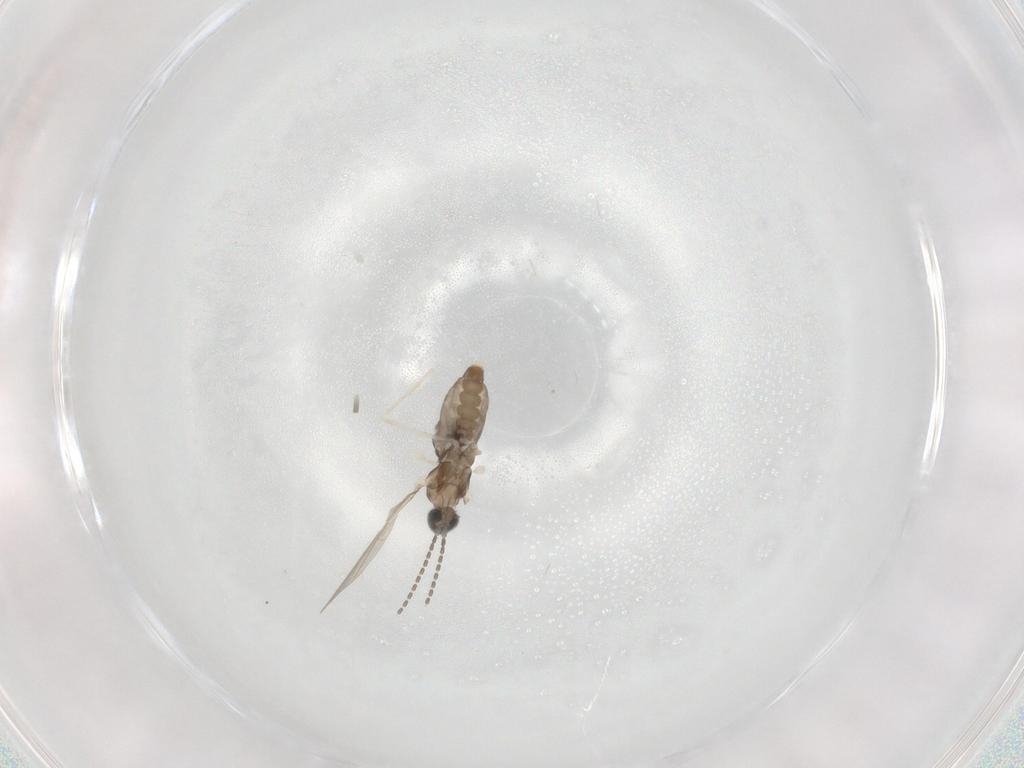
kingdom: Animalia
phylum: Arthropoda
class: Insecta
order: Diptera
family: Cecidomyiidae
